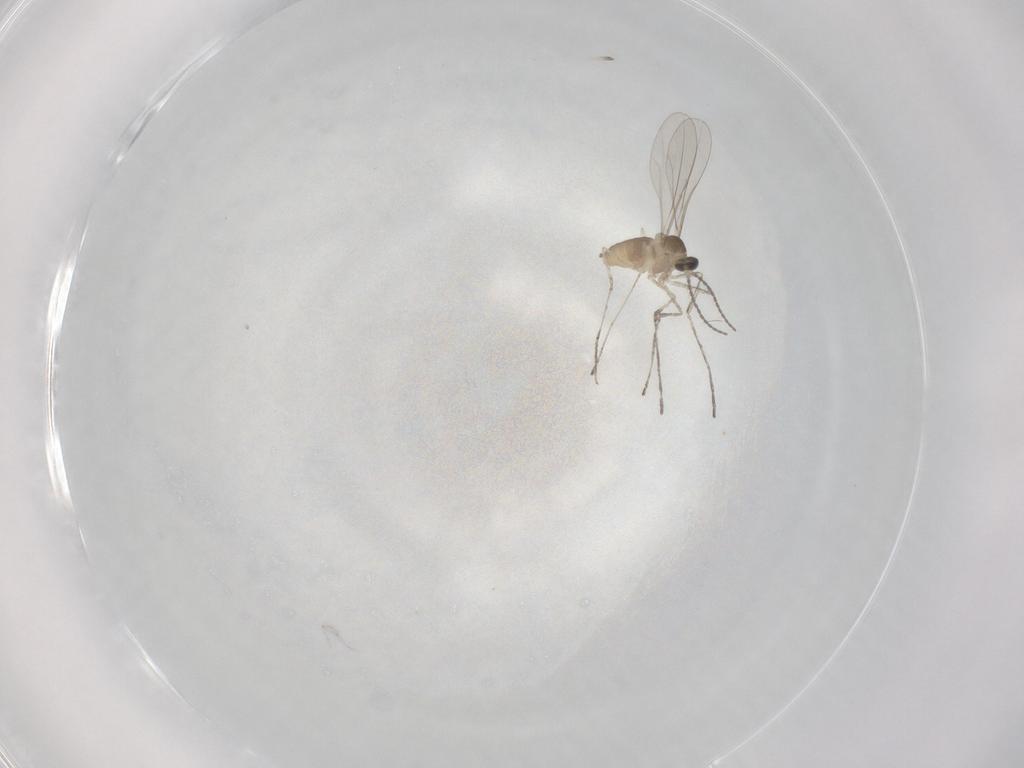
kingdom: Animalia
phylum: Arthropoda
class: Insecta
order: Diptera
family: Cecidomyiidae
